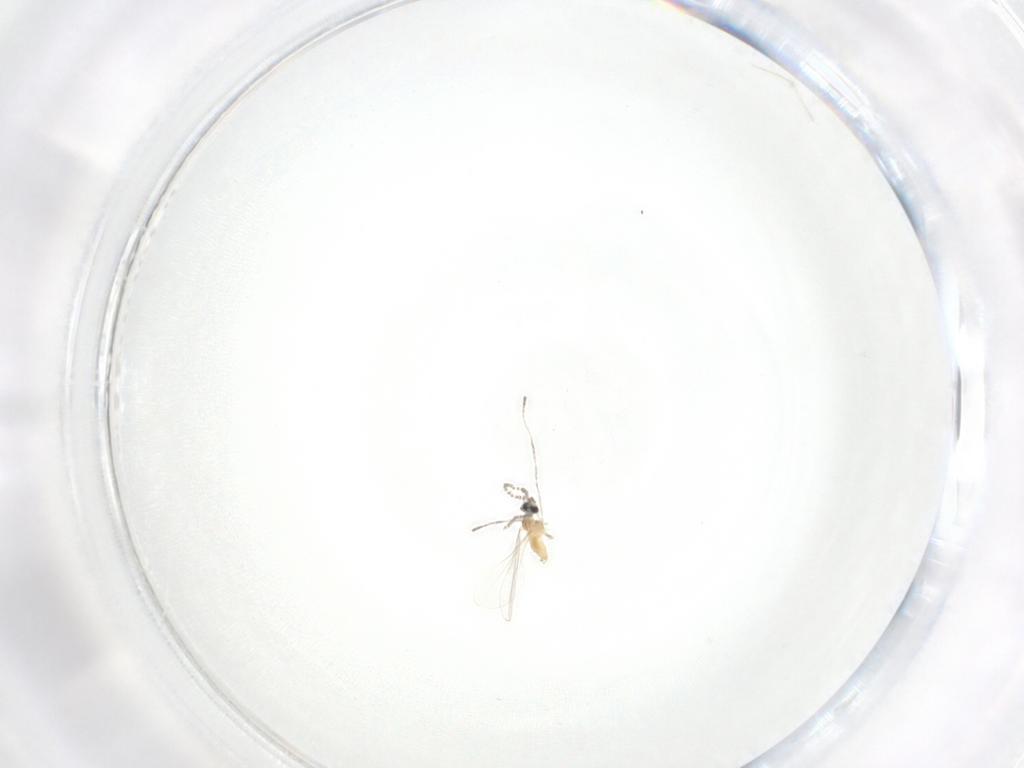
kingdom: Animalia
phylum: Arthropoda
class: Insecta
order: Diptera
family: Cecidomyiidae
